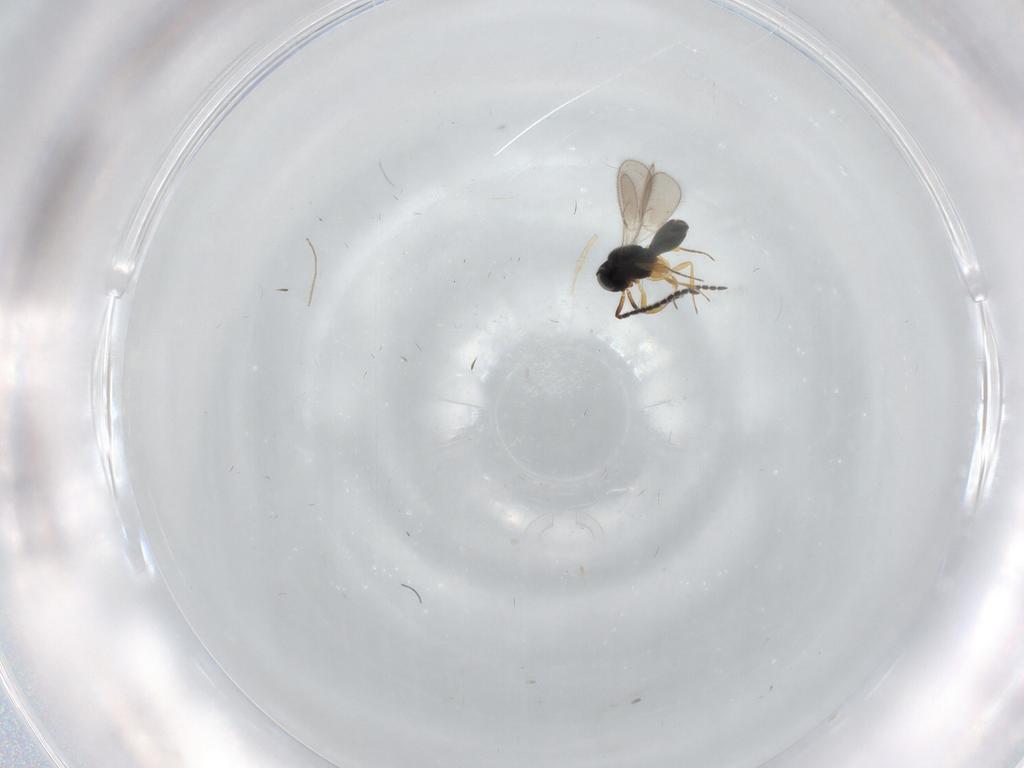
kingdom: Animalia
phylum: Arthropoda
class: Insecta
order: Hymenoptera
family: Scelionidae
